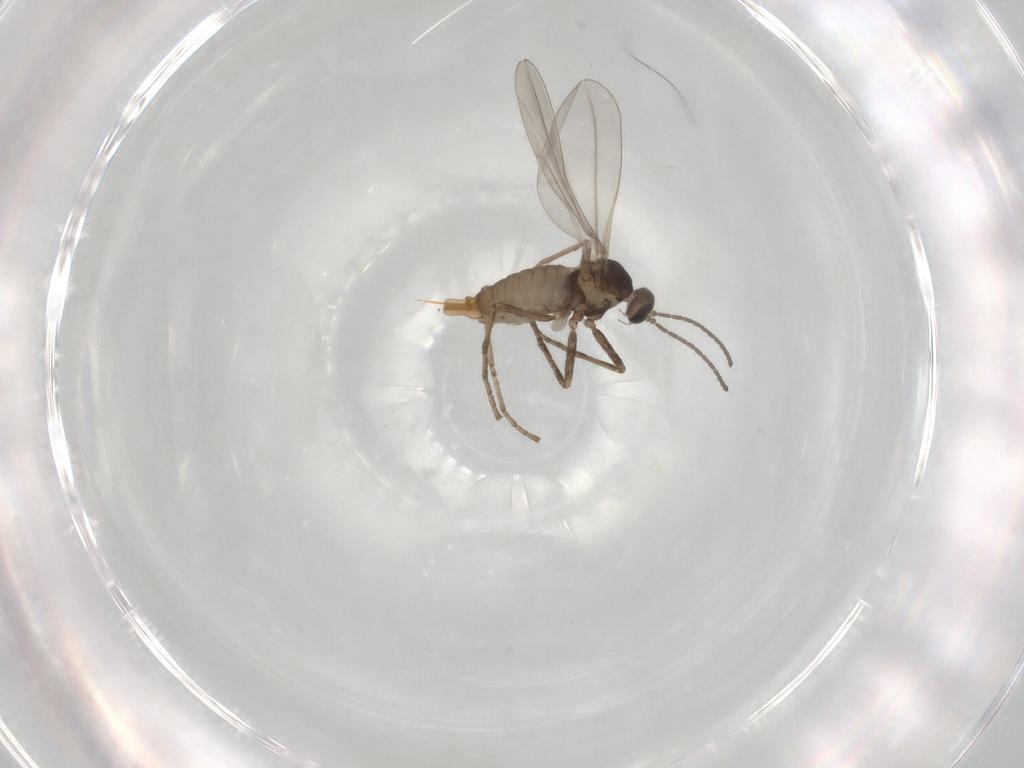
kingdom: Animalia
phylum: Arthropoda
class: Insecta
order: Diptera
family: Cecidomyiidae
